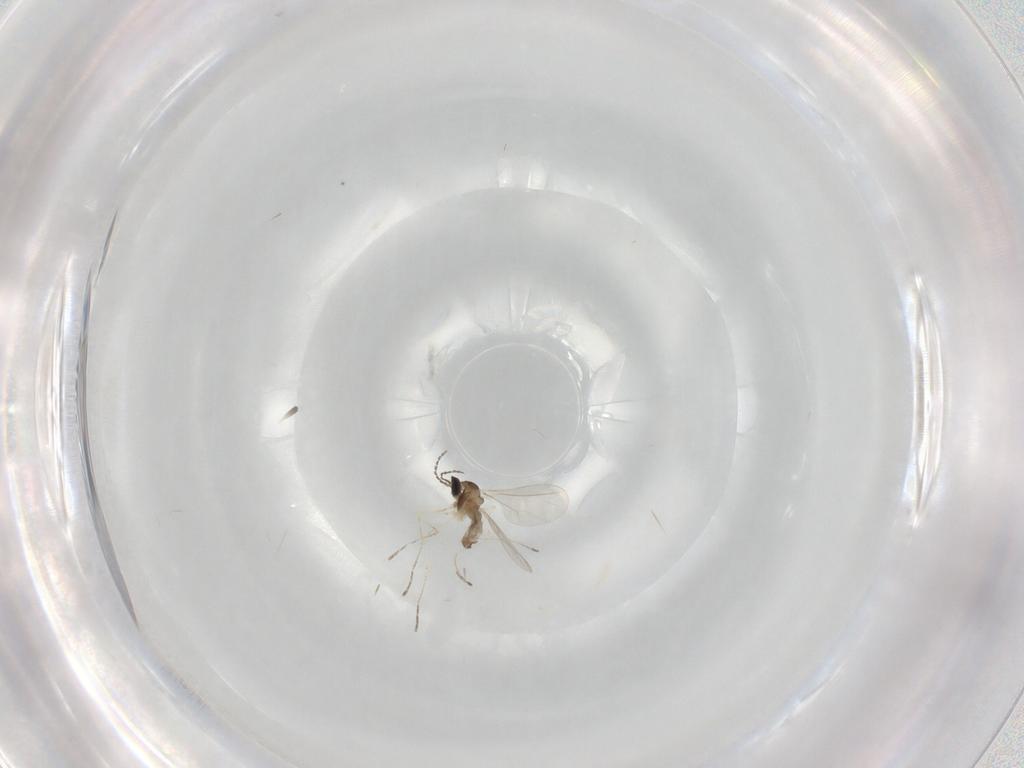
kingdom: Animalia
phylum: Arthropoda
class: Insecta
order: Diptera
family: Cecidomyiidae
